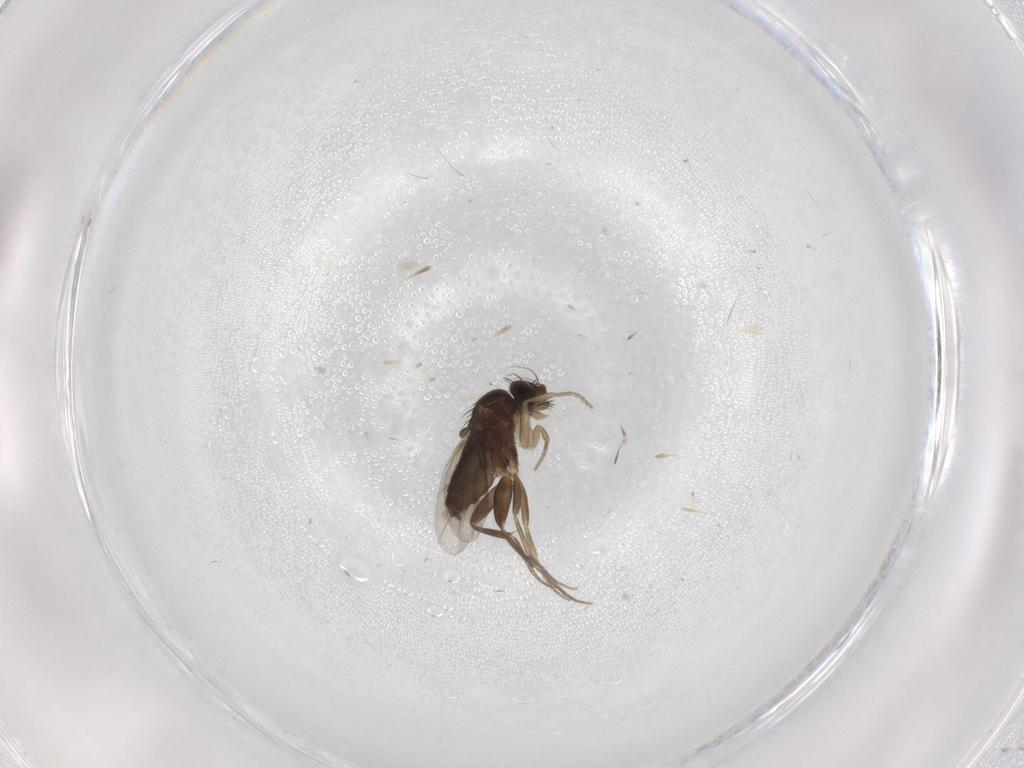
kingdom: Animalia
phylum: Arthropoda
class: Insecta
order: Diptera
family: Phoridae
